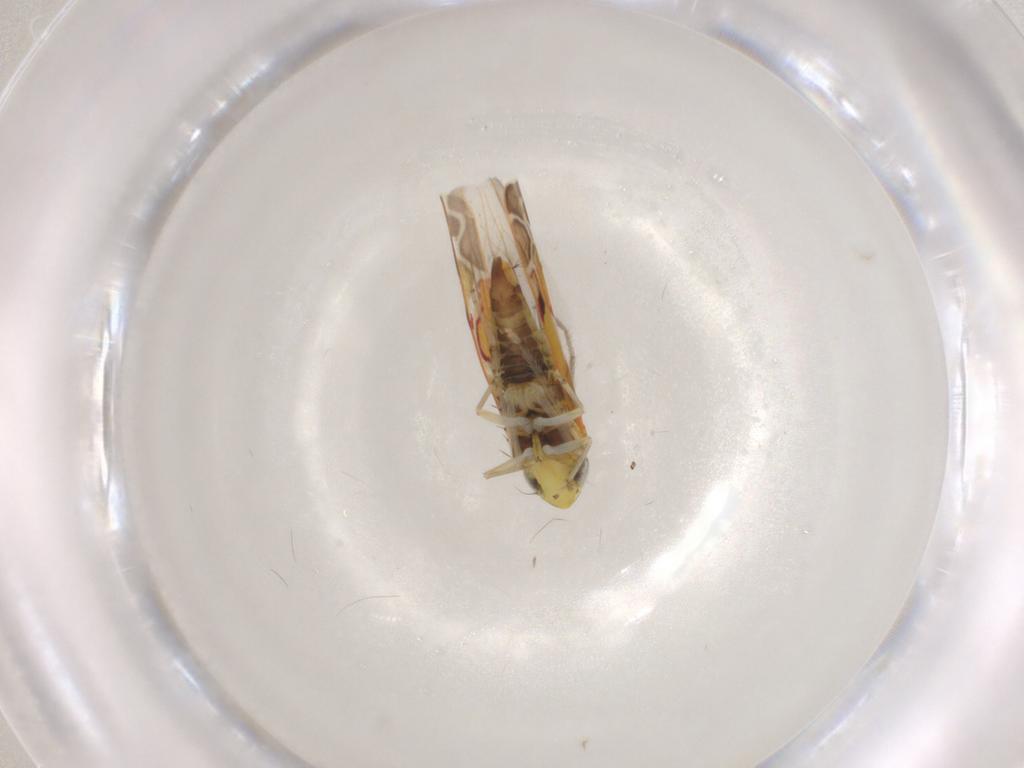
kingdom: Animalia
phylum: Arthropoda
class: Insecta
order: Hemiptera
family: Cicadellidae
